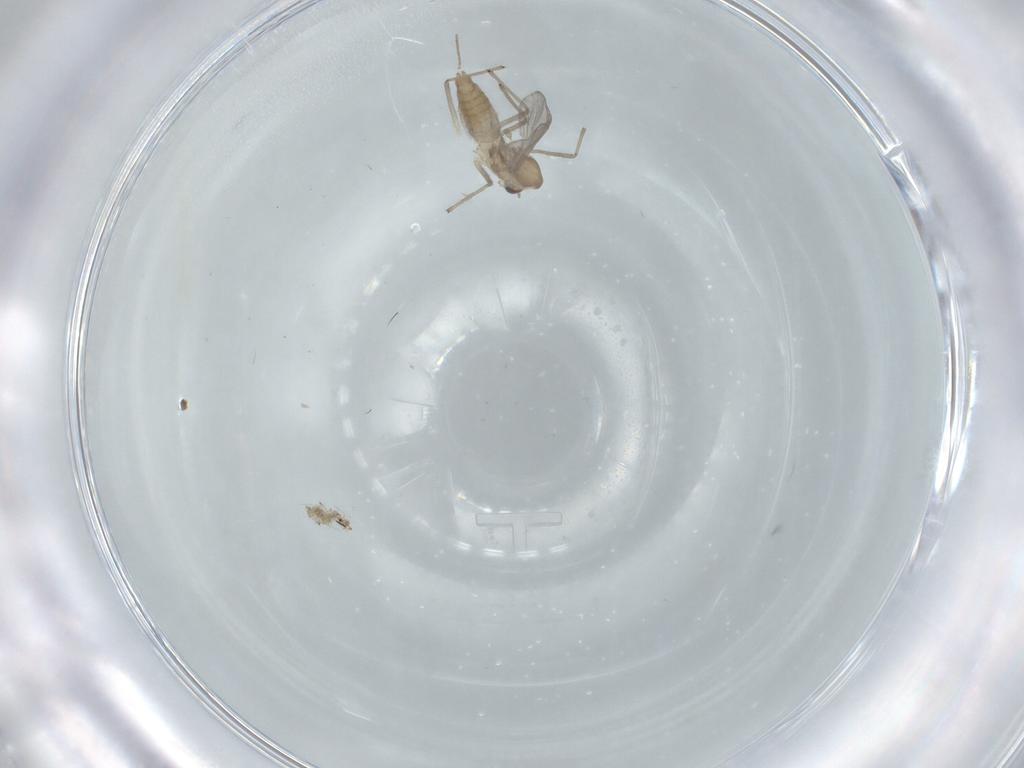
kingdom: Animalia
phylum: Arthropoda
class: Insecta
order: Diptera
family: Chironomidae
